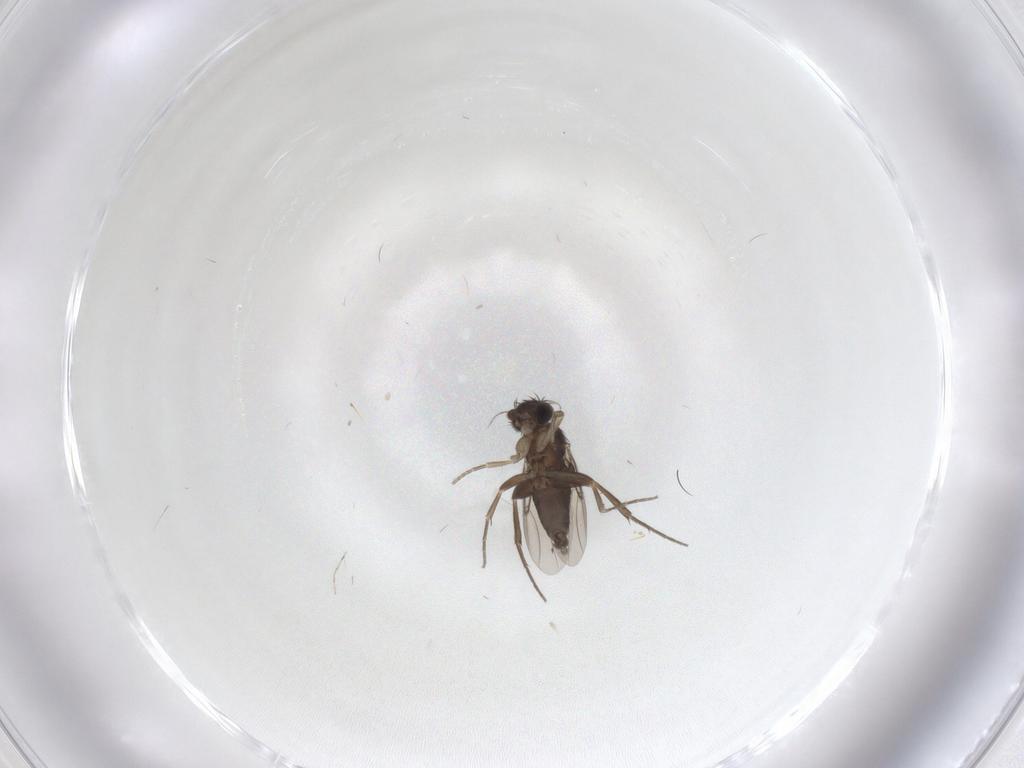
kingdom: Animalia
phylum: Arthropoda
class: Insecta
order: Diptera
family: Phoridae
